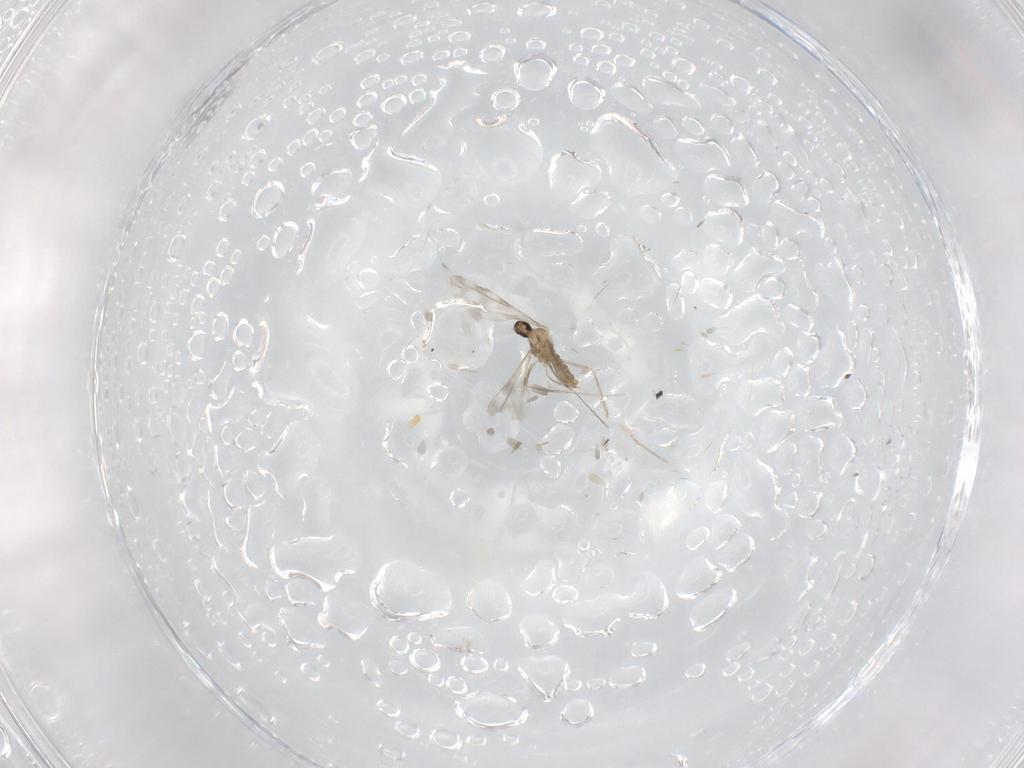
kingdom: Animalia
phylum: Arthropoda
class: Insecta
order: Diptera
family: Cecidomyiidae
